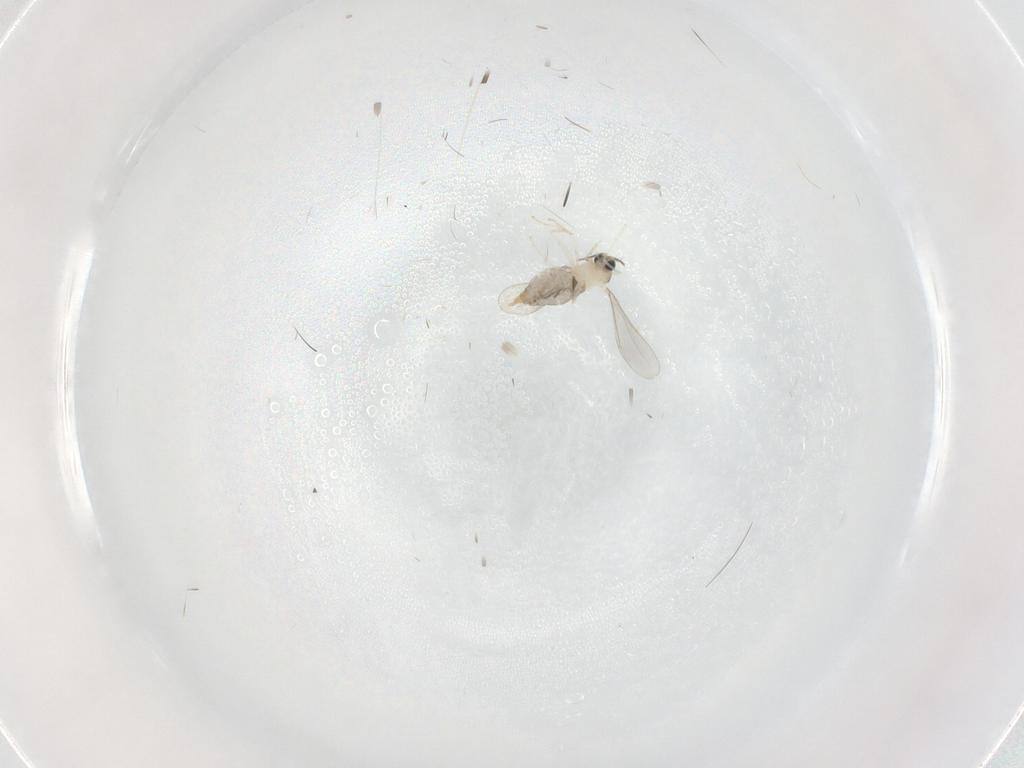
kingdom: Animalia
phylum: Arthropoda
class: Insecta
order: Diptera
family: Cecidomyiidae
